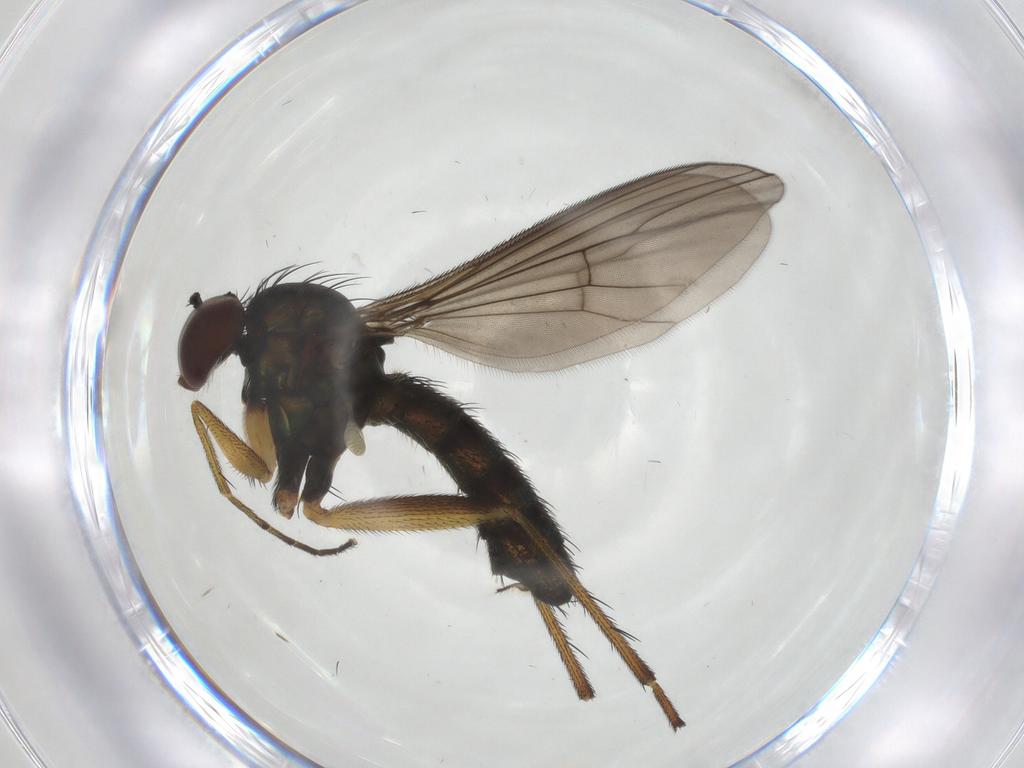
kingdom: Animalia
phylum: Arthropoda
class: Insecta
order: Diptera
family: Dolichopodidae
